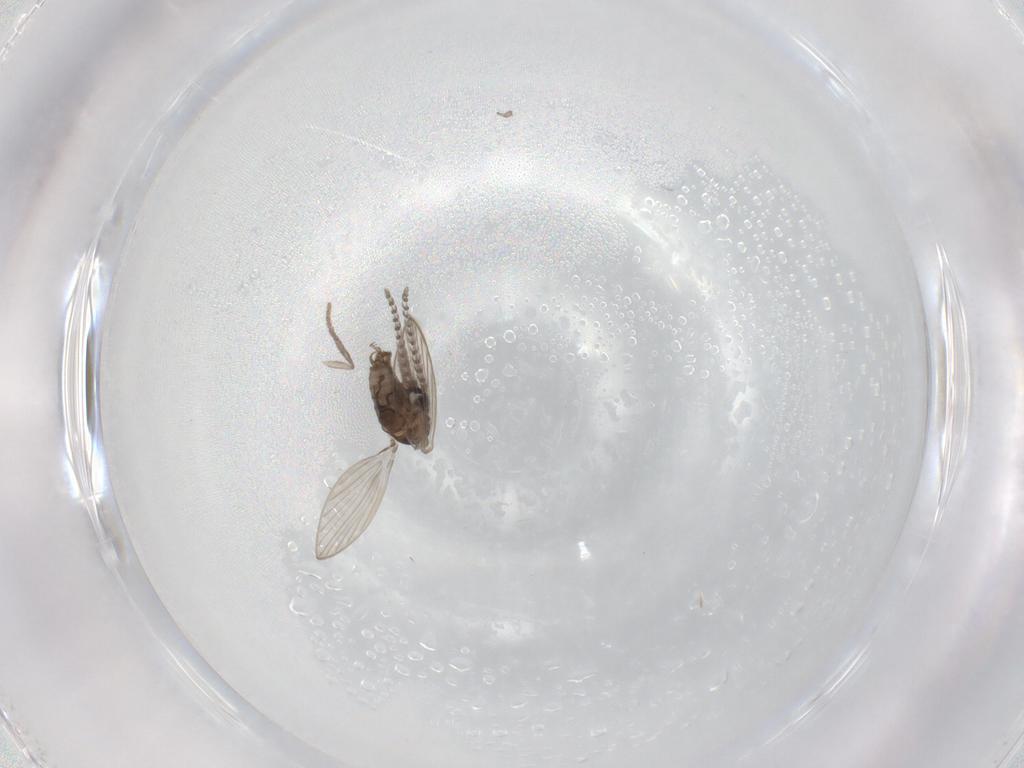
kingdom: Animalia
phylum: Arthropoda
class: Insecta
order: Diptera
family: Psychodidae
